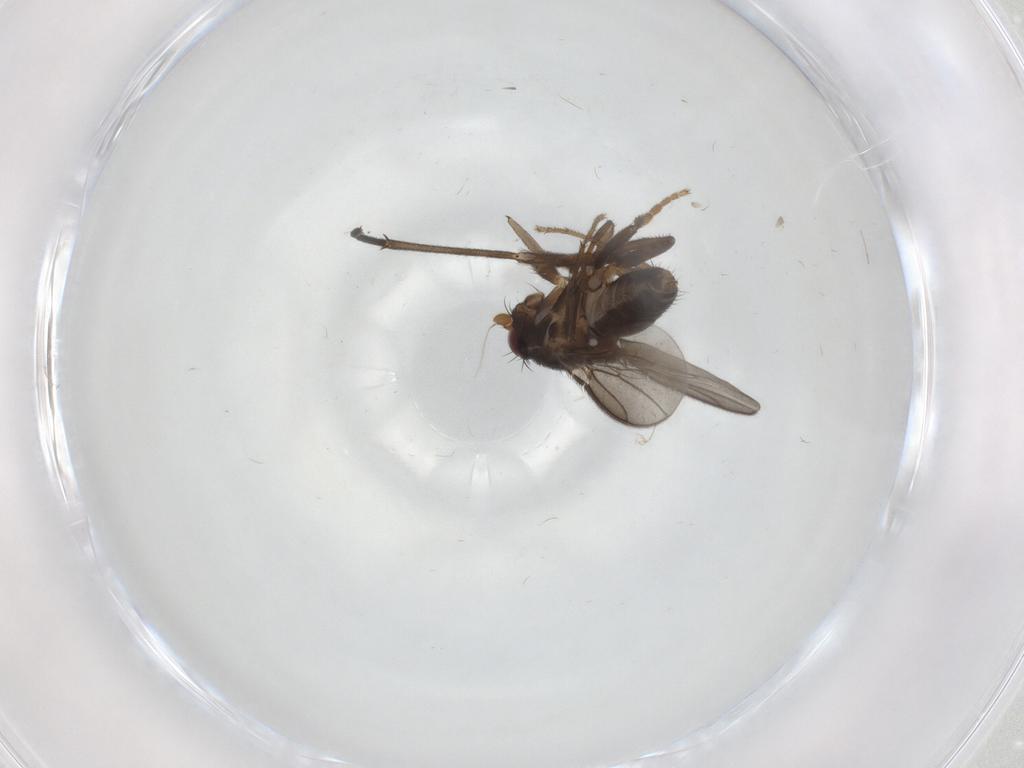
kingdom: Animalia
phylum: Arthropoda
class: Insecta
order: Diptera
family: Sphaeroceridae
